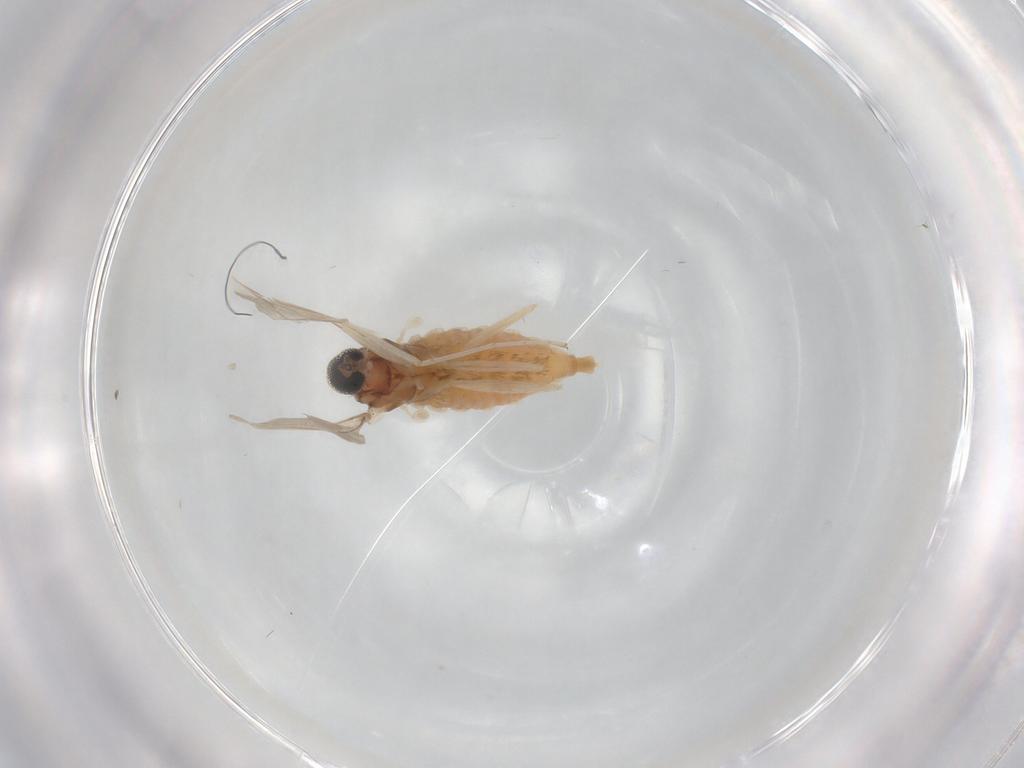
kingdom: Animalia
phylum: Arthropoda
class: Insecta
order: Diptera
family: Cecidomyiidae
